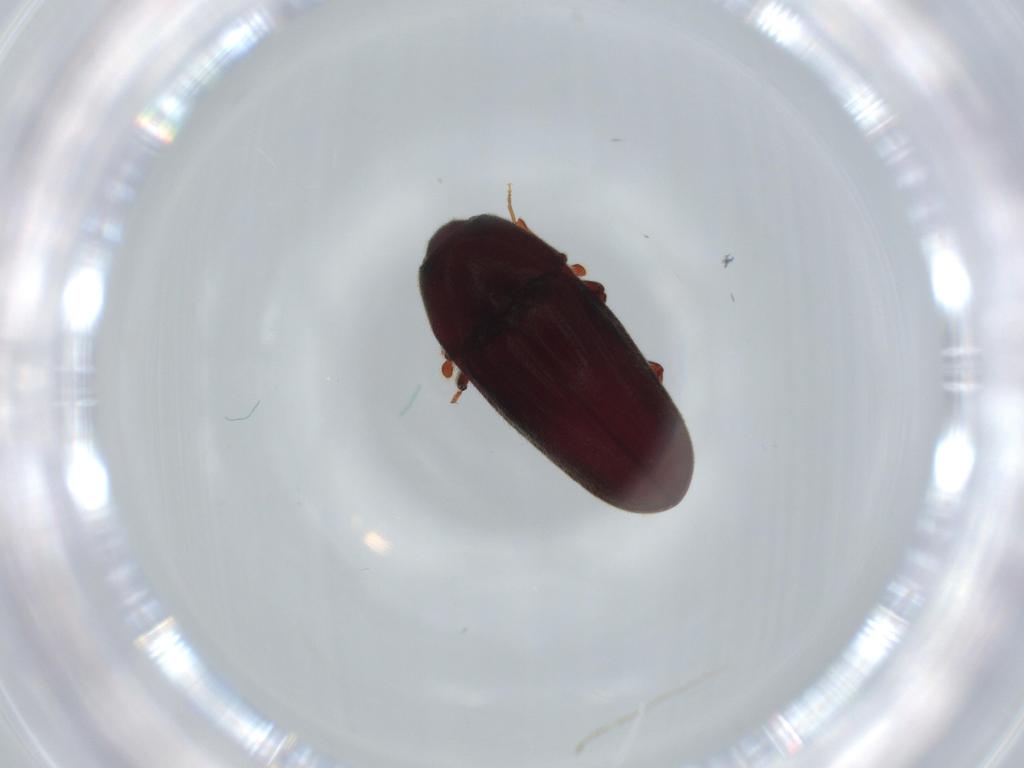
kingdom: Animalia
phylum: Arthropoda
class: Insecta
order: Coleoptera
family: Throscidae
